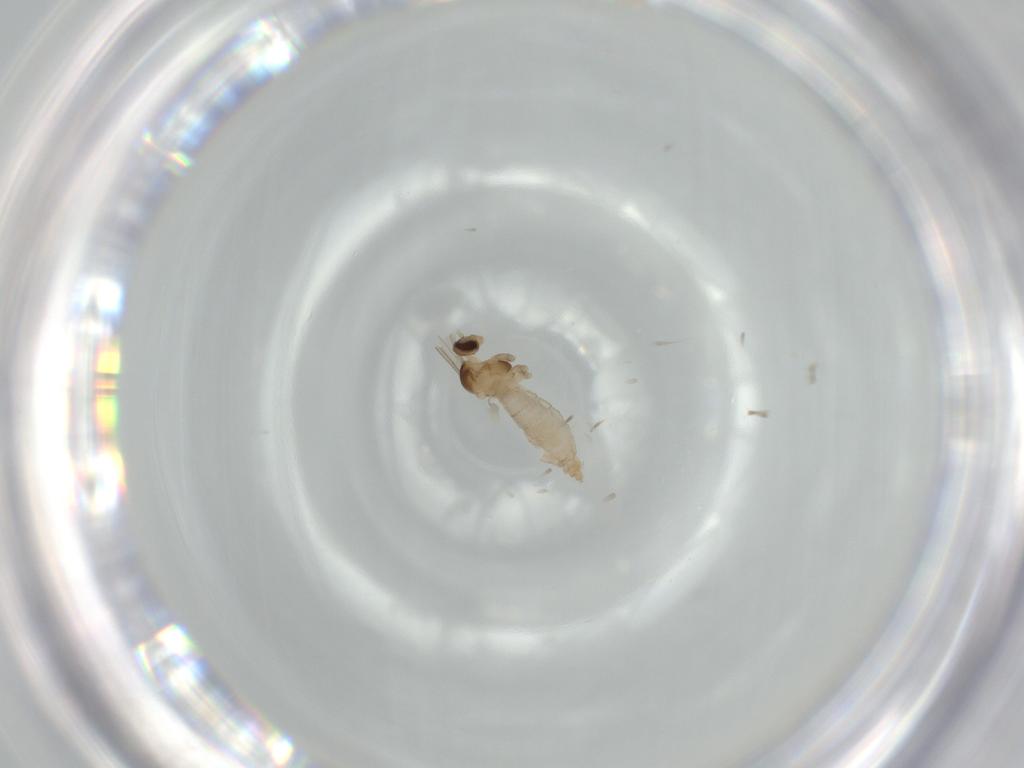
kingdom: Animalia
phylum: Arthropoda
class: Insecta
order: Diptera
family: Cecidomyiidae
